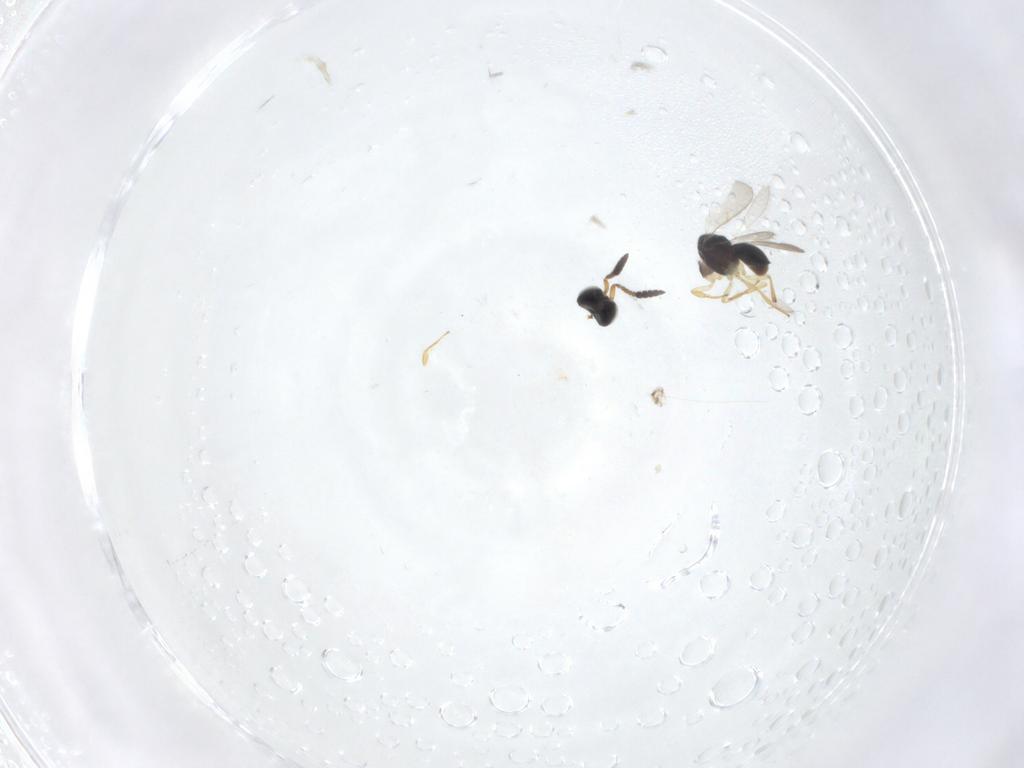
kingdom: Animalia
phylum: Arthropoda
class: Insecta
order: Hymenoptera
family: Scelionidae
